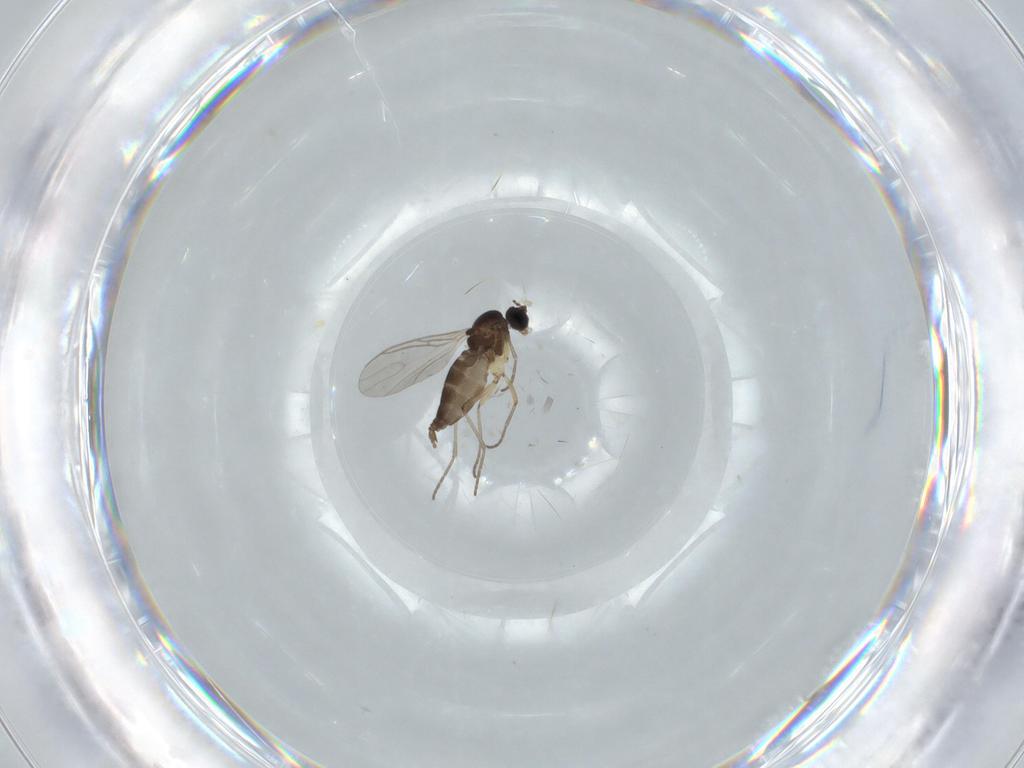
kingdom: Animalia
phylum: Arthropoda
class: Insecta
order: Diptera
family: Sciaridae
